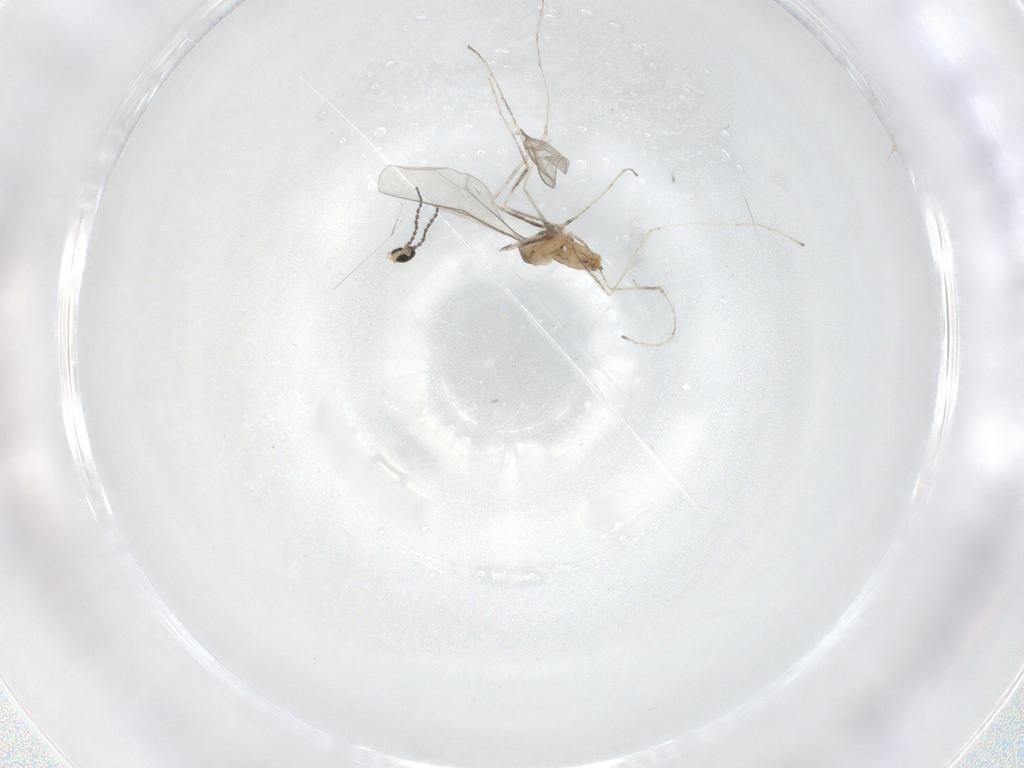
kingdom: Animalia
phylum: Arthropoda
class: Insecta
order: Diptera
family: Cecidomyiidae
